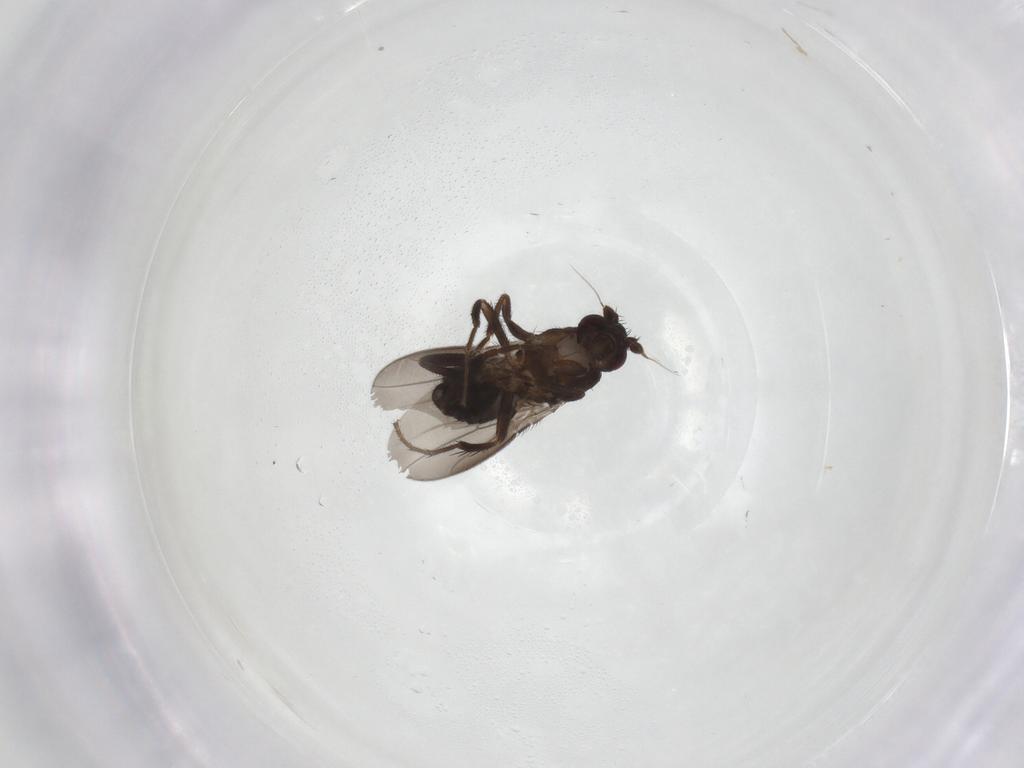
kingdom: Animalia
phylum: Arthropoda
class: Insecta
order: Diptera
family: Sphaeroceridae
